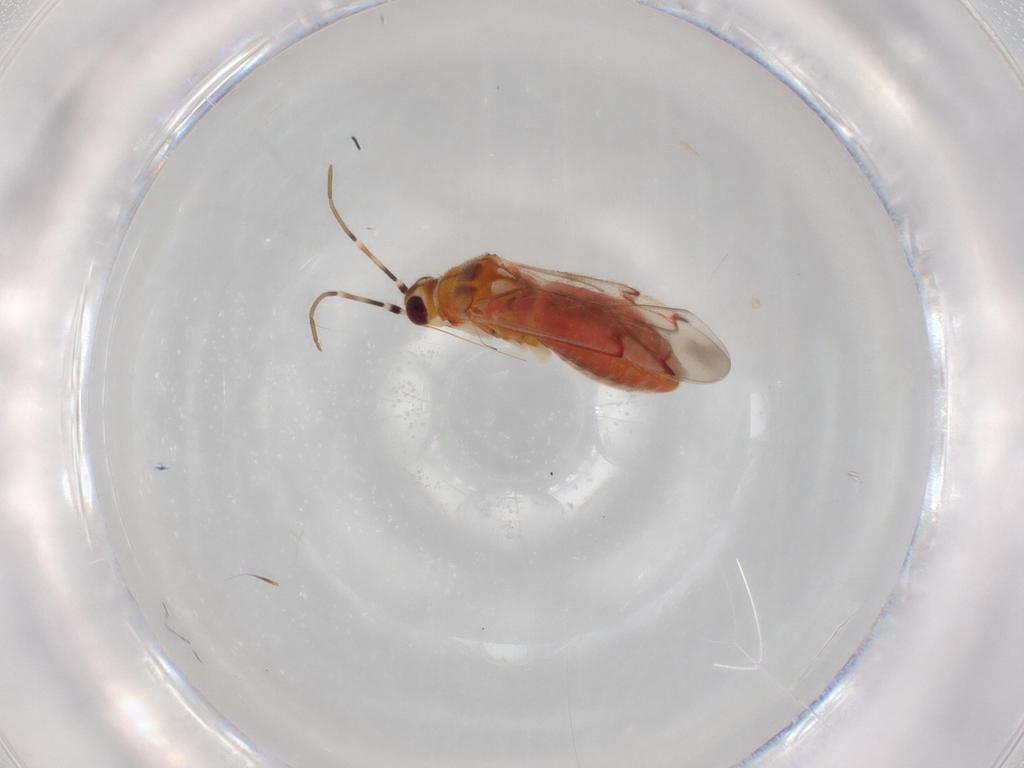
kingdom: Animalia
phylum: Arthropoda
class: Insecta
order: Hemiptera
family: Miridae
